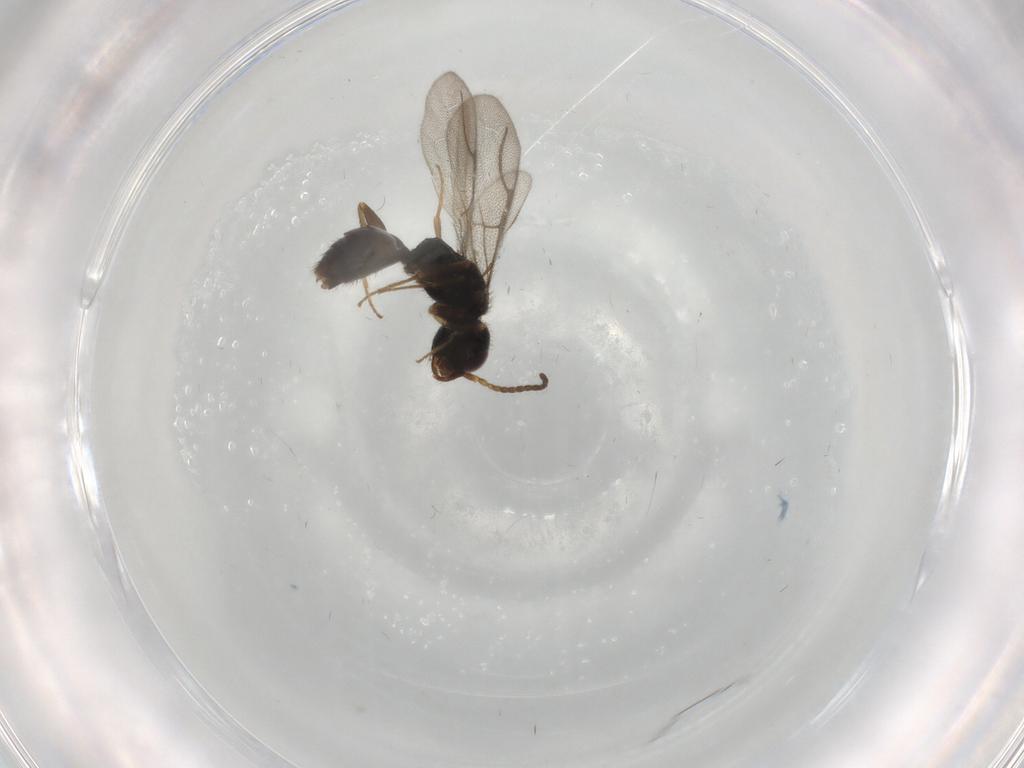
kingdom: Animalia
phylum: Arthropoda
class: Insecta
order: Hymenoptera
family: Bethylidae
